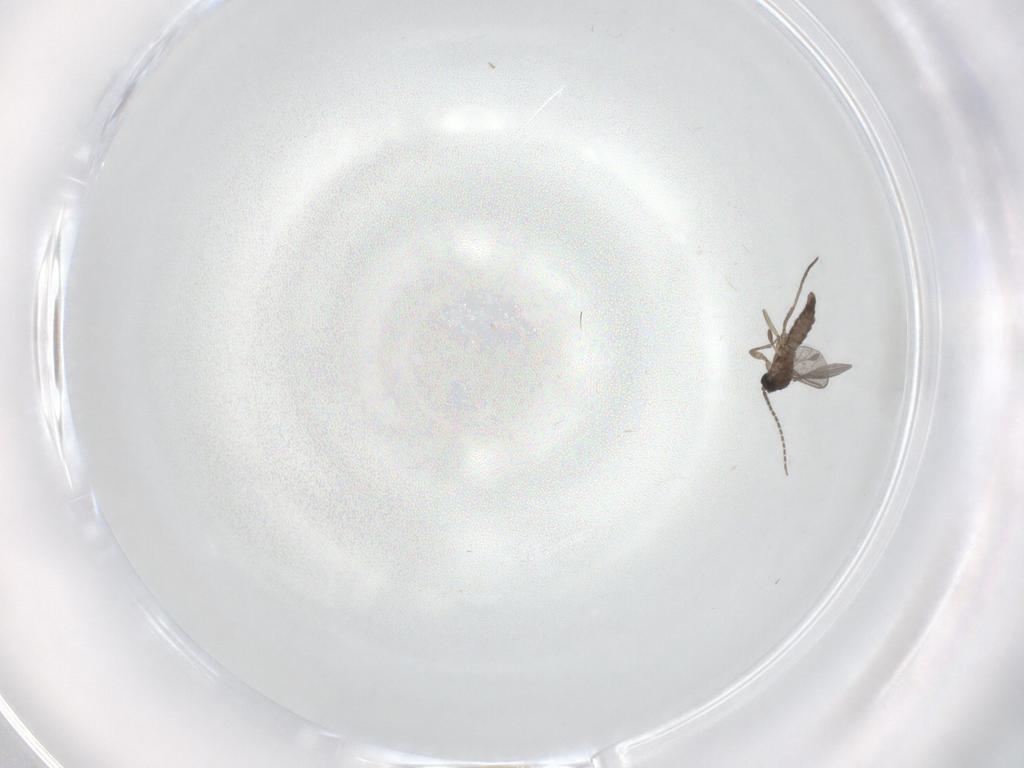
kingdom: Animalia
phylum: Arthropoda
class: Insecta
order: Diptera
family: Sciaridae
